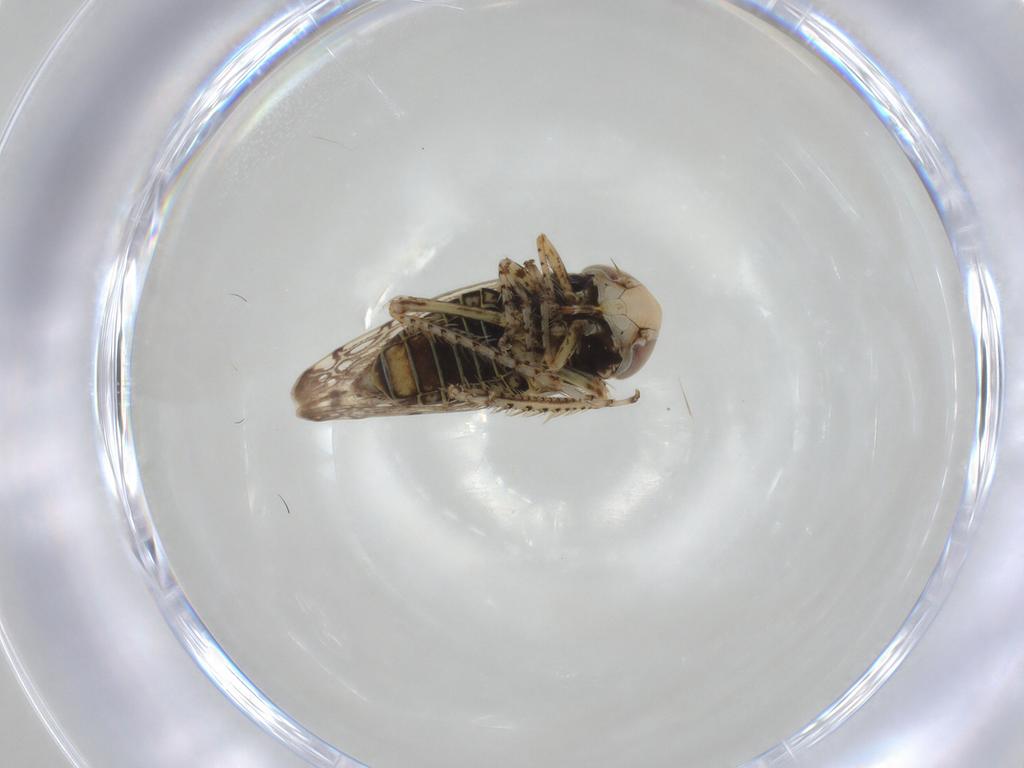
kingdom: Animalia
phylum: Arthropoda
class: Insecta
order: Hemiptera
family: Cicadellidae
